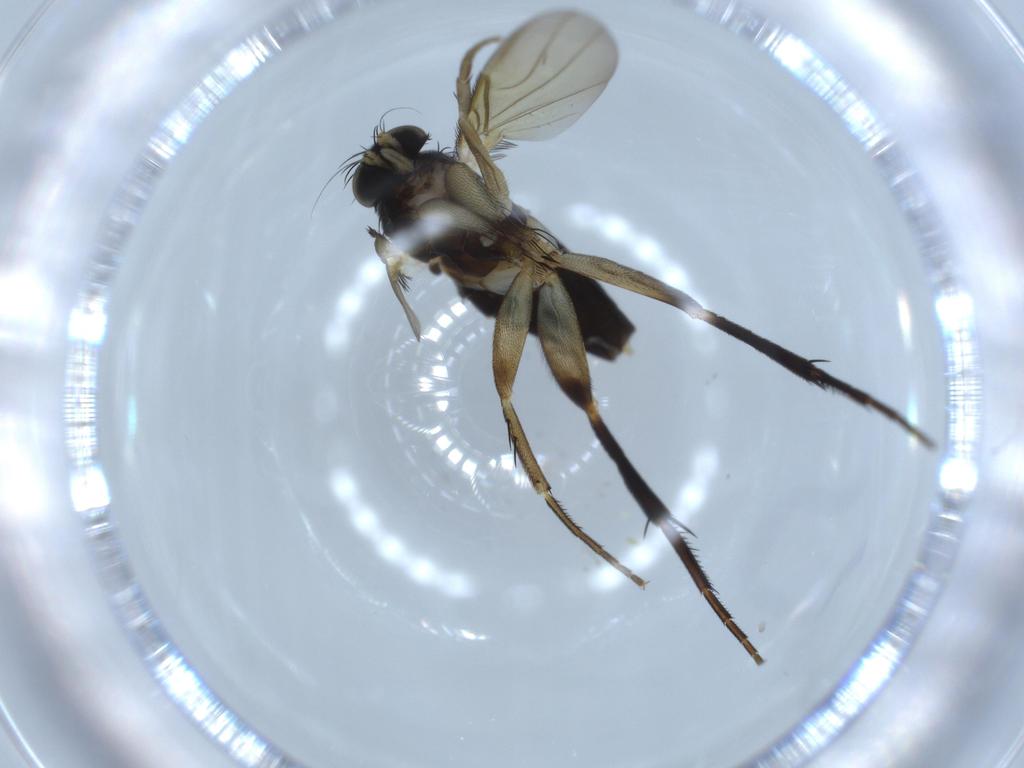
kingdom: Animalia
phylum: Arthropoda
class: Insecta
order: Diptera
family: Phoridae
